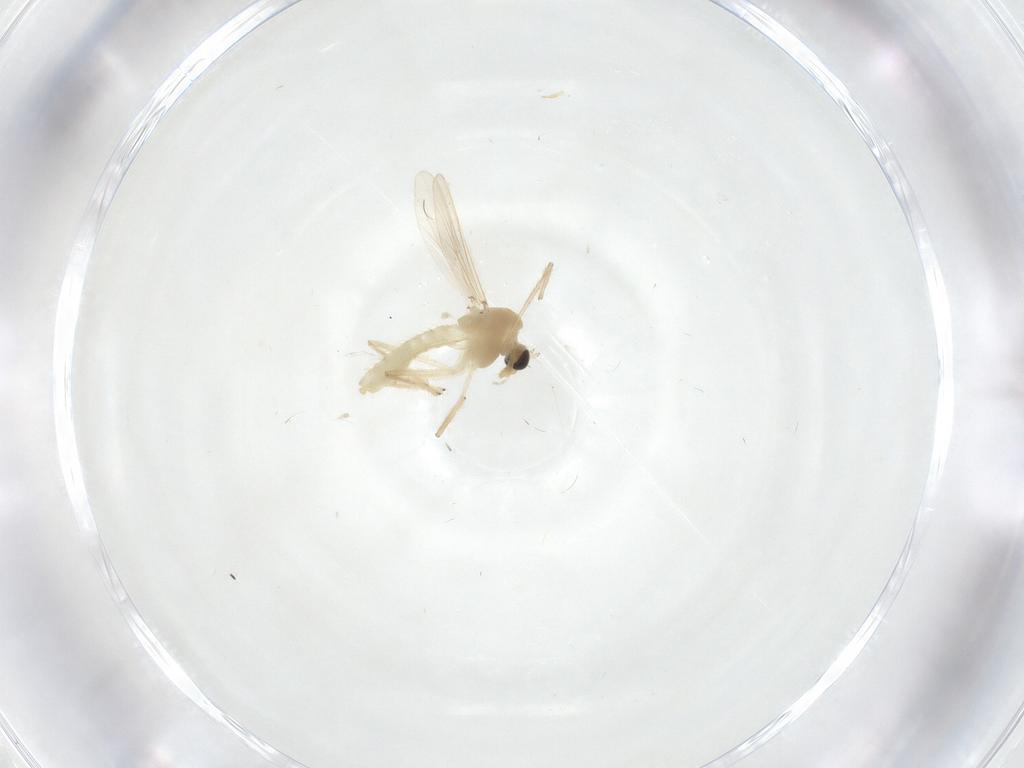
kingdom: Animalia
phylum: Arthropoda
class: Insecta
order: Diptera
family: Ceratopogonidae
